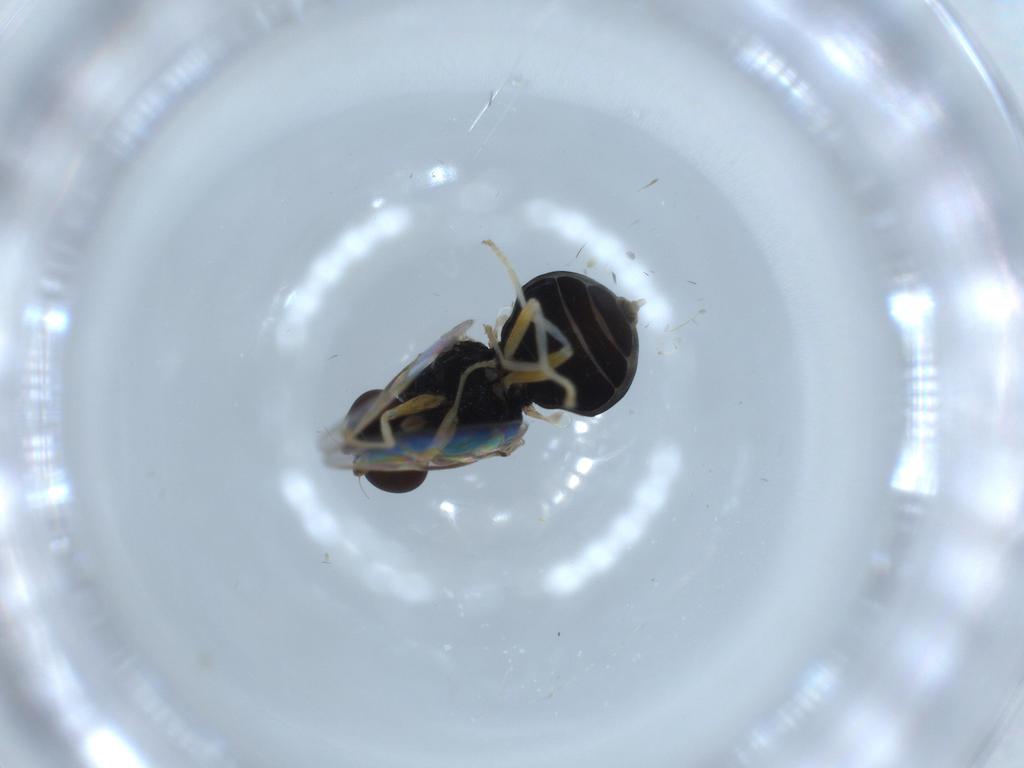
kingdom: Animalia
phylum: Arthropoda
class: Insecta
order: Diptera
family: Stratiomyidae
